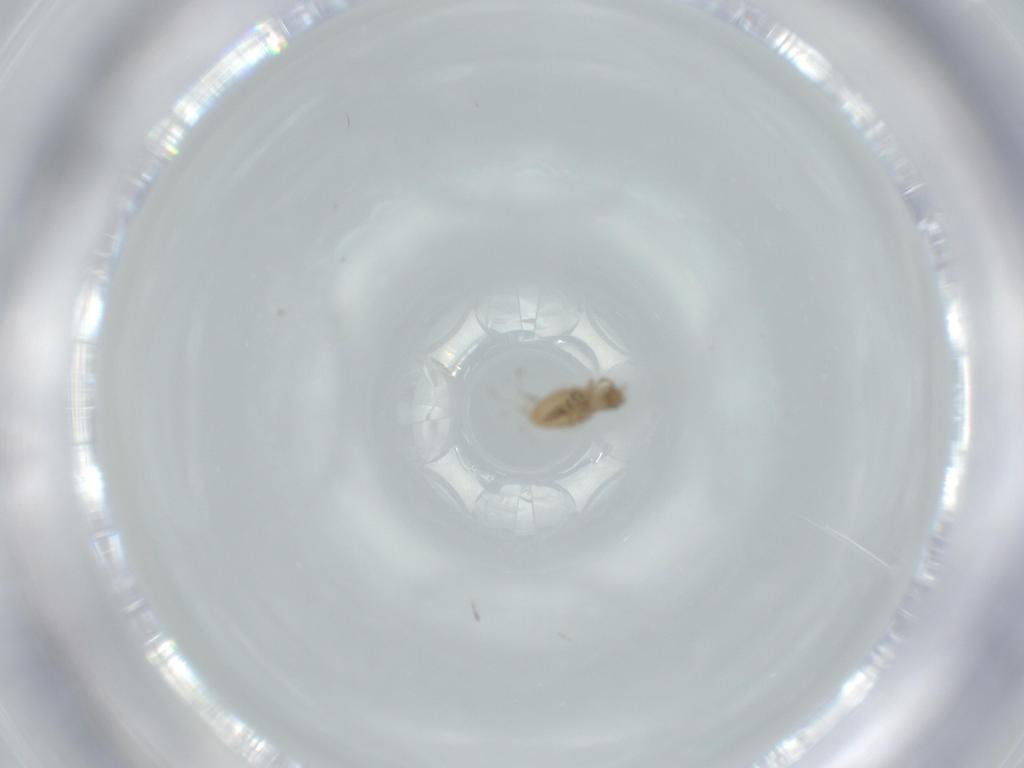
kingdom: Animalia
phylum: Arthropoda
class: Insecta
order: Diptera
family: Phoridae
